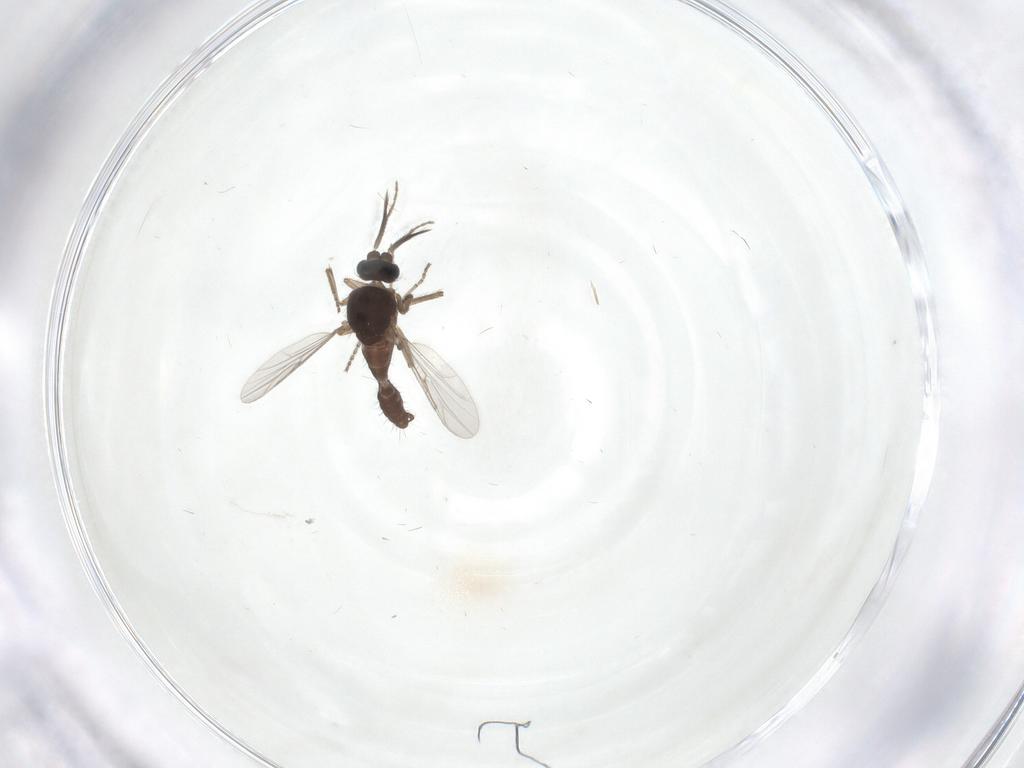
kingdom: Animalia
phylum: Arthropoda
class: Insecta
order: Diptera
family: Ceratopogonidae
